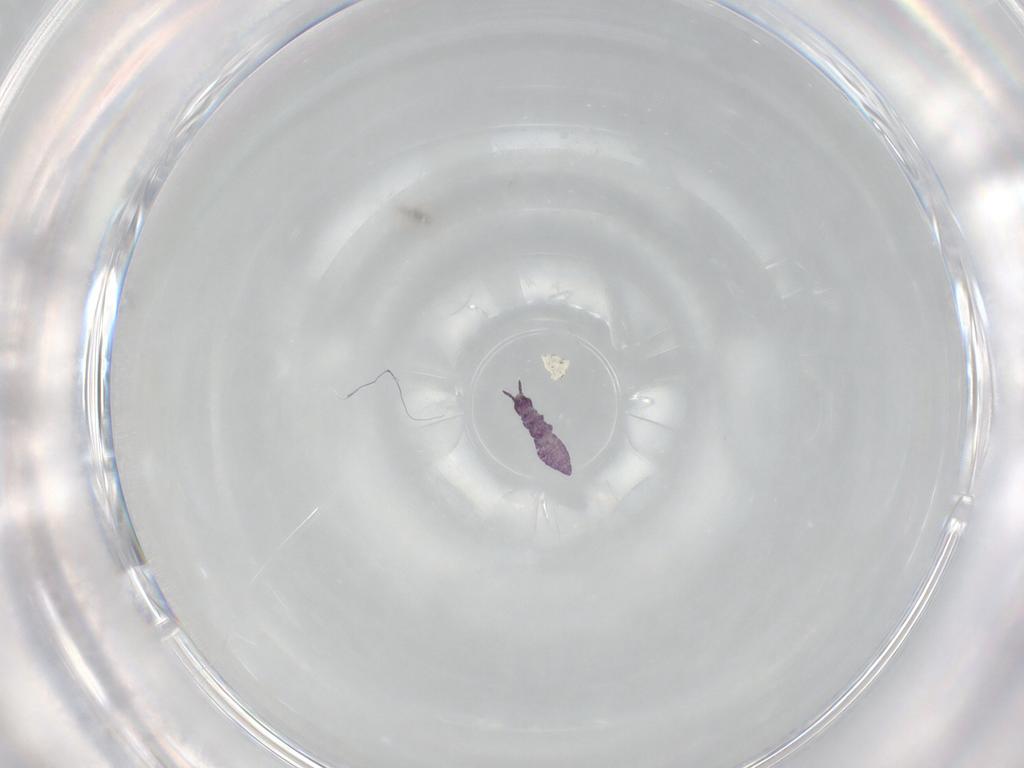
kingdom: Animalia
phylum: Arthropoda
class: Collembola
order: Poduromorpha
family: Brachystomellidae
